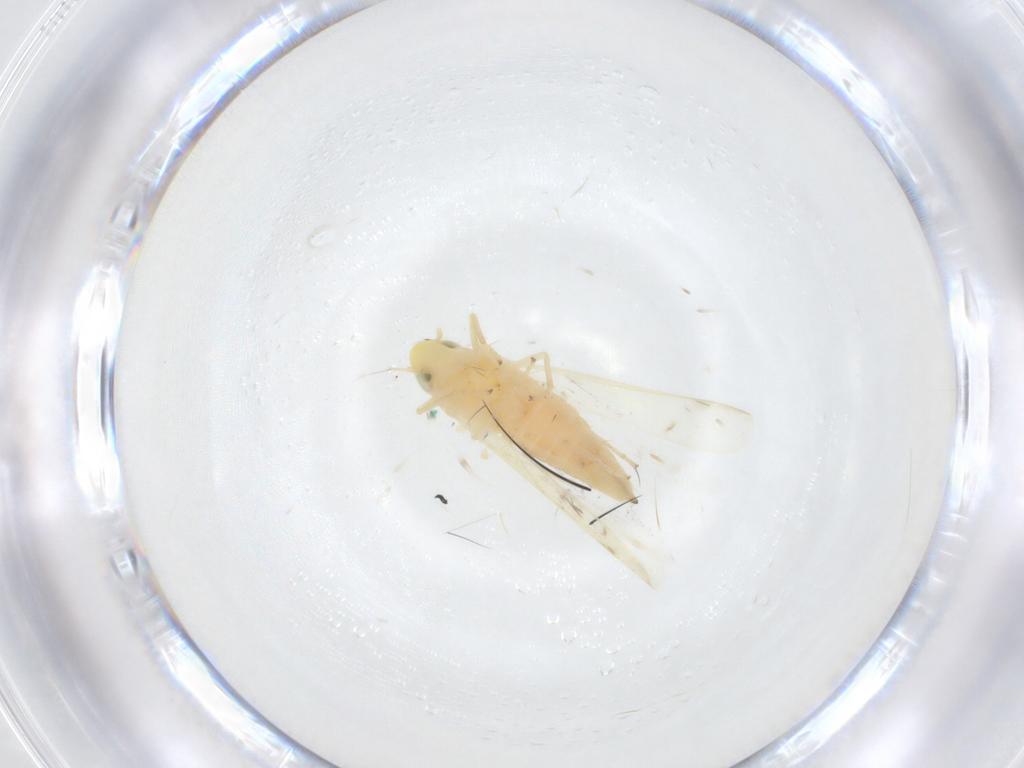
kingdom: Animalia
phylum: Arthropoda
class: Insecta
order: Hemiptera
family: Cicadellidae
